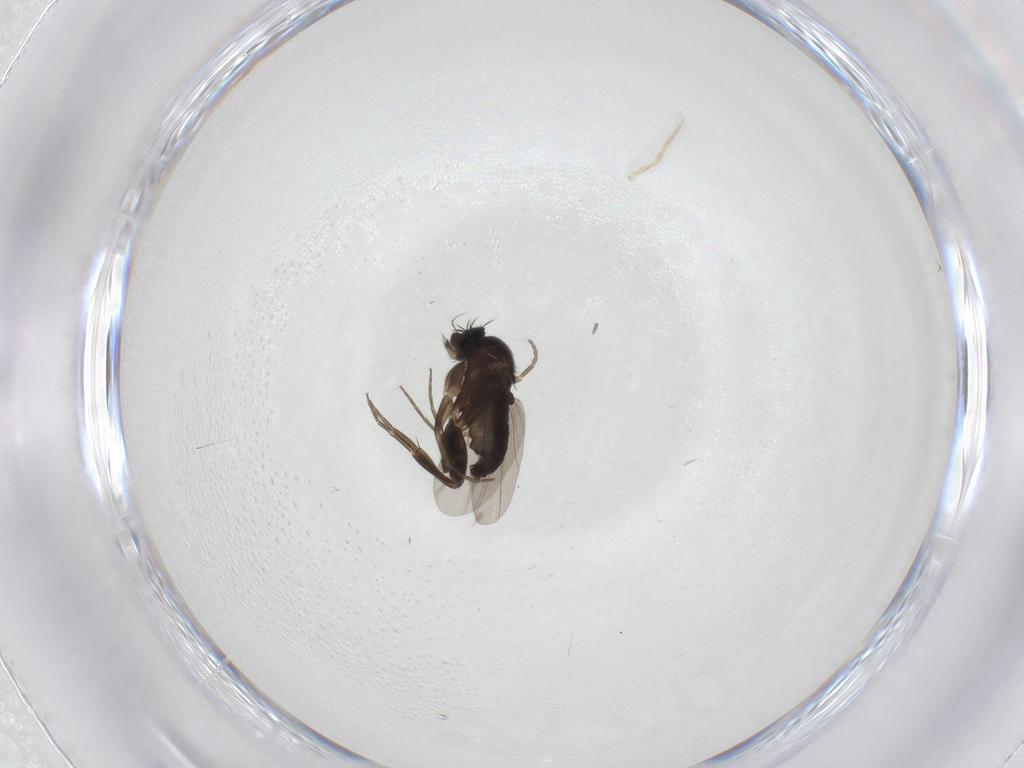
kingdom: Animalia
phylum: Arthropoda
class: Insecta
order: Diptera
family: Phoridae
